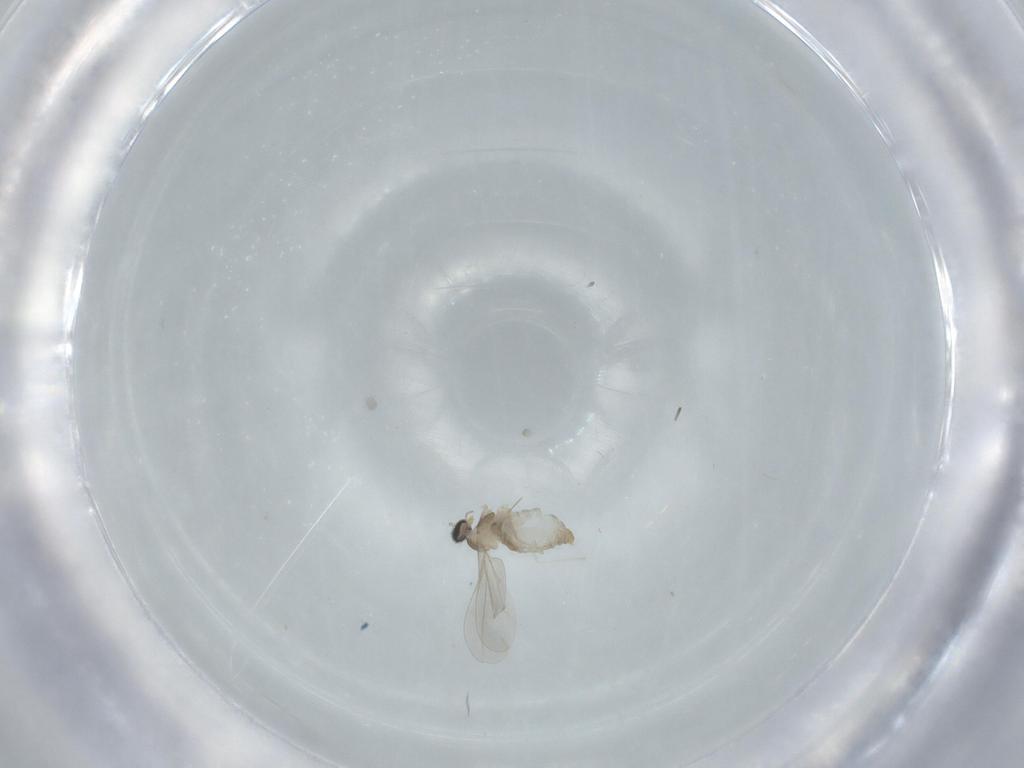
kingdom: Animalia
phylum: Arthropoda
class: Insecta
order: Diptera
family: Cecidomyiidae
